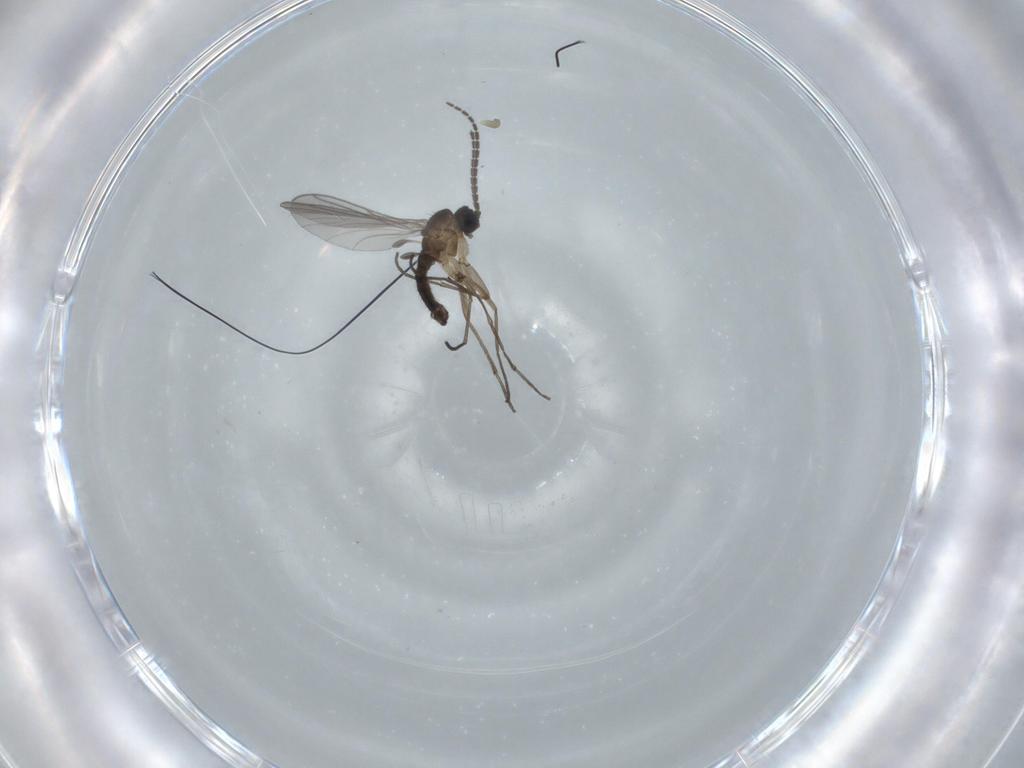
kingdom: Animalia
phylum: Arthropoda
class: Insecta
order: Diptera
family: Sciaridae
